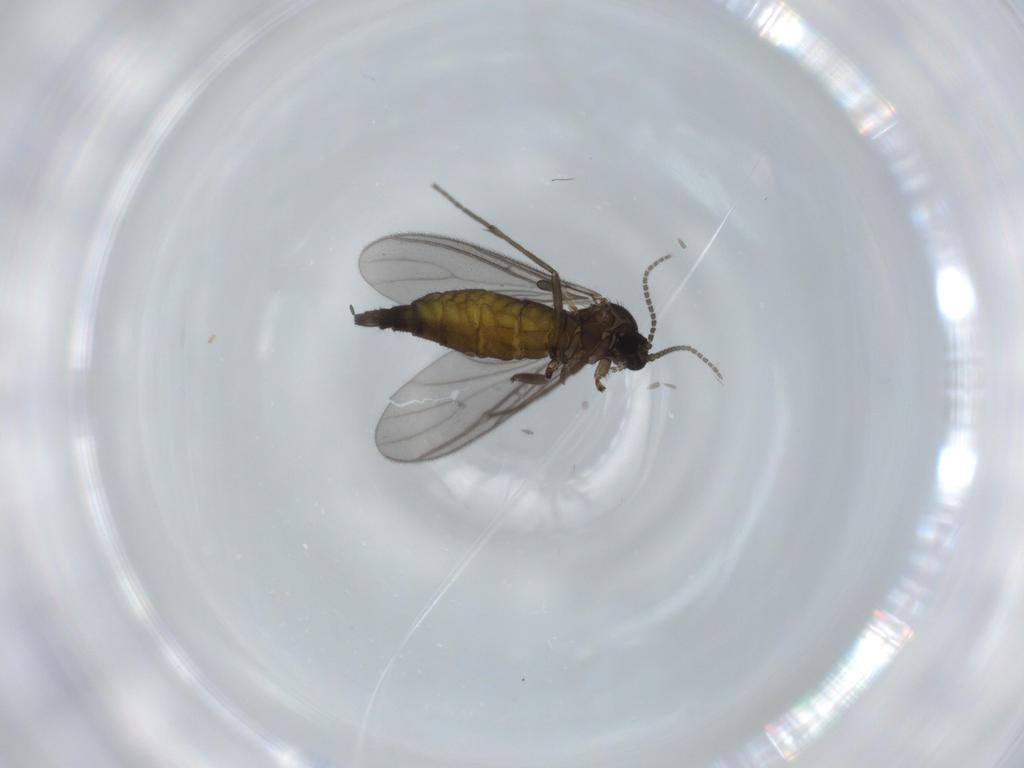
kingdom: Animalia
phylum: Arthropoda
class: Insecta
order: Diptera
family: Sciaridae
